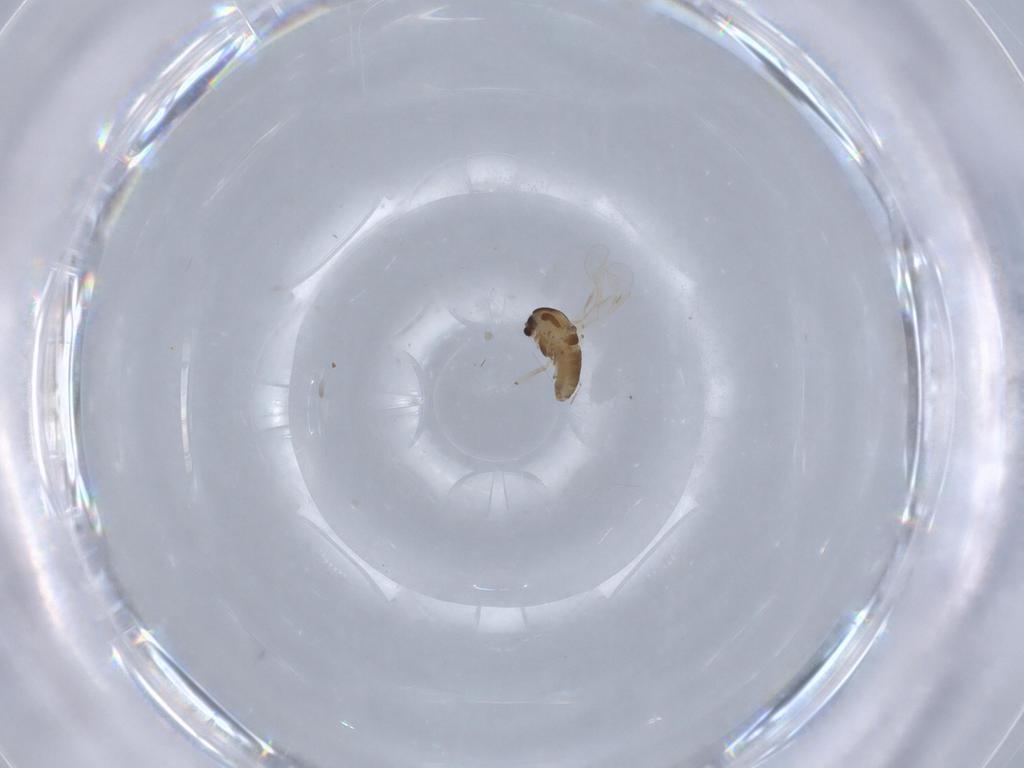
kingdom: Animalia
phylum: Arthropoda
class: Insecta
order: Diptera
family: Chironomidae
